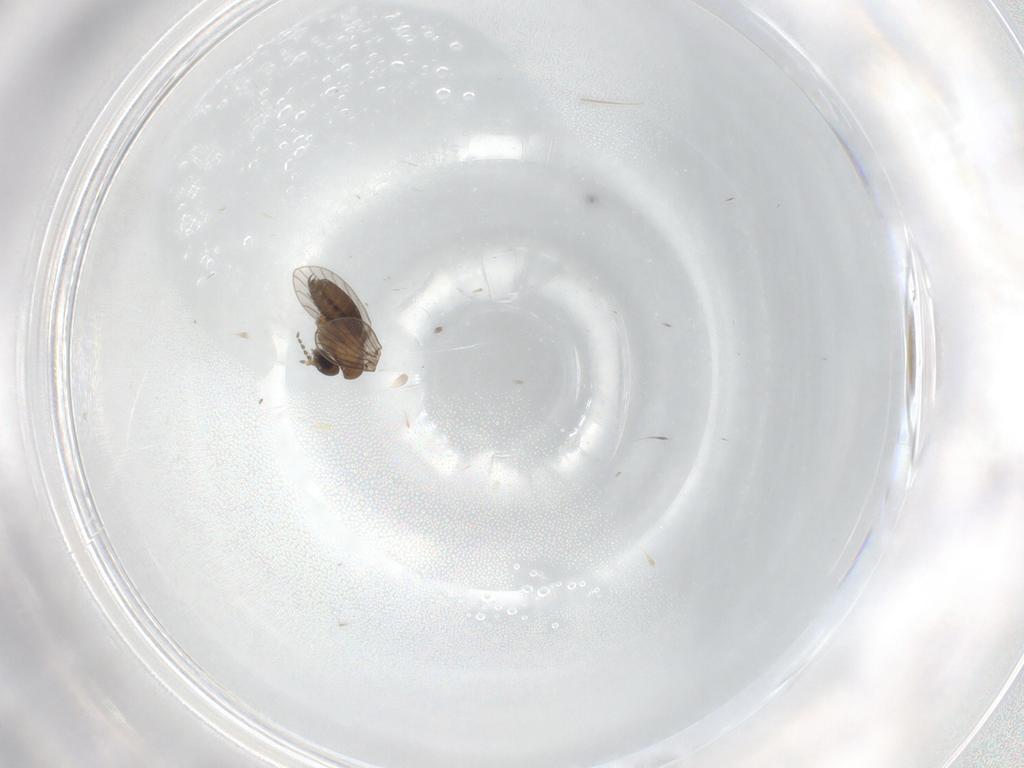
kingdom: Animalia
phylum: Arthropoda
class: Insecta
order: Diptera
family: Psychodidae
